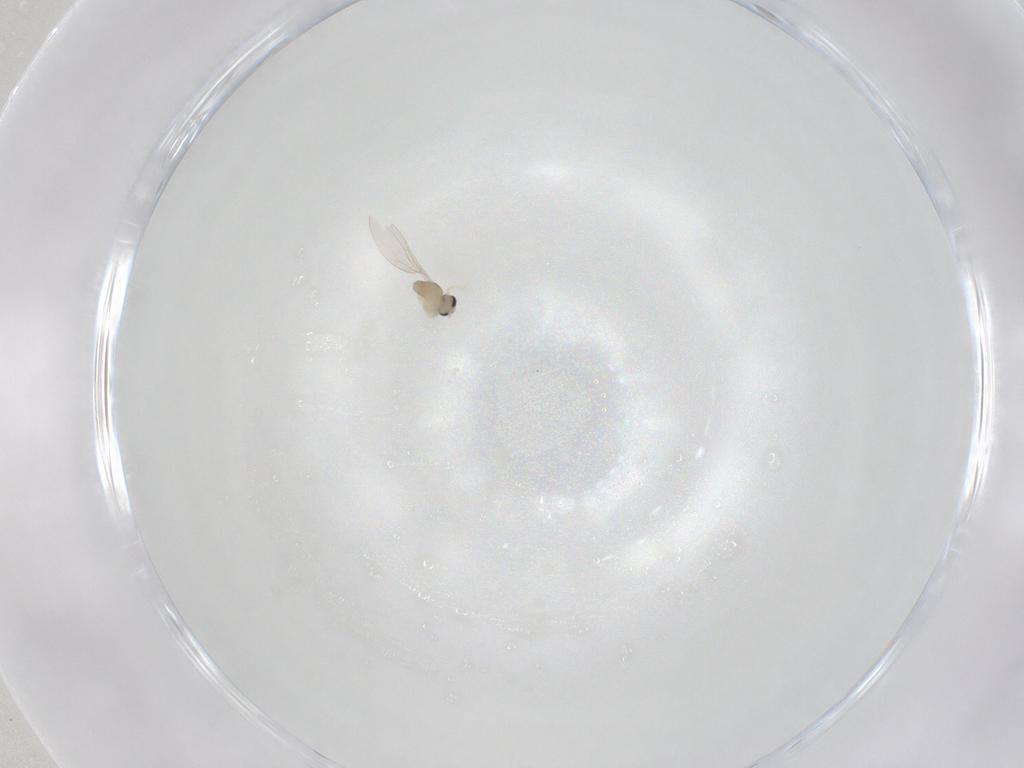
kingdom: Animalia
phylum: Arthropoda
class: Insecta
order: Diptera
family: Cecidomyiidae
